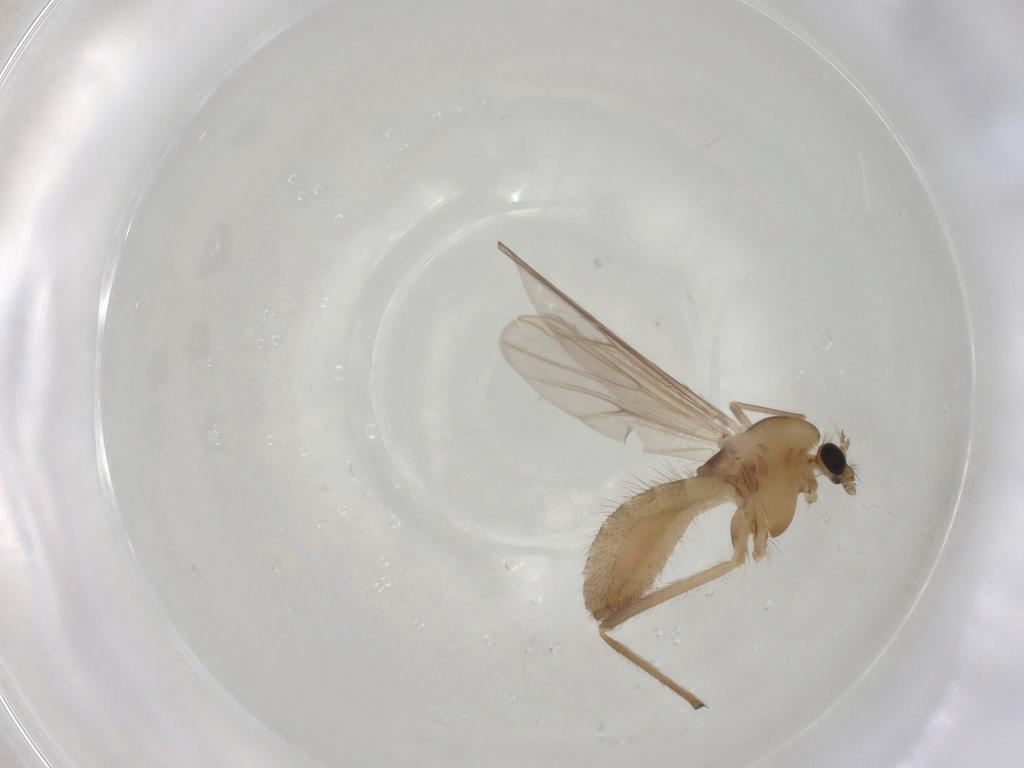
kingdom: Animalia
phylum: Arthropoda
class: Insecta
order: Diptera
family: Chironomidae
